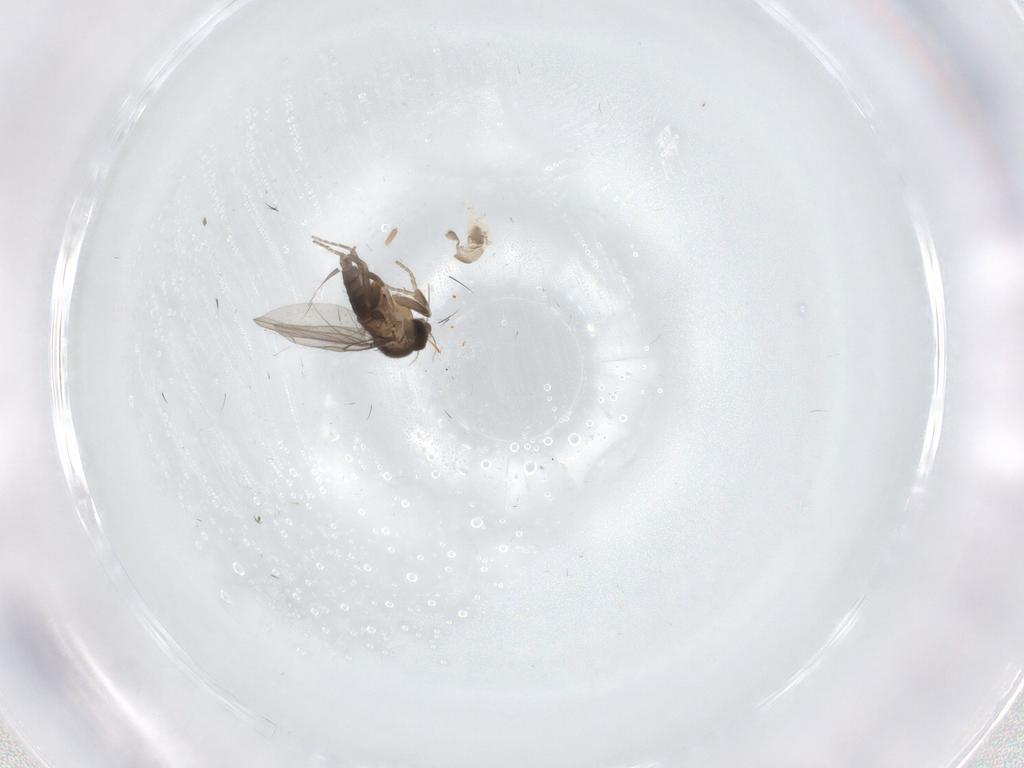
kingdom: Animalia
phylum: Arthropoda
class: Insecta
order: Diptera
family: Psychodidae
